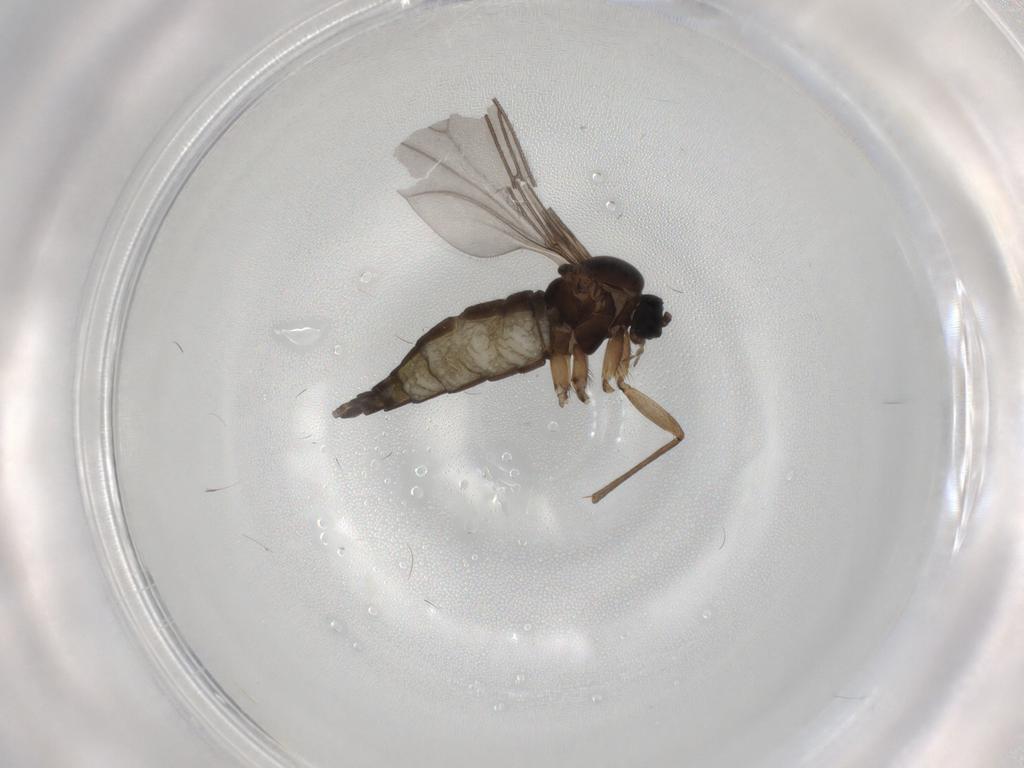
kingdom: Animalia
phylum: Arthropoda
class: Insecta
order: Diptera
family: Sciaridae
